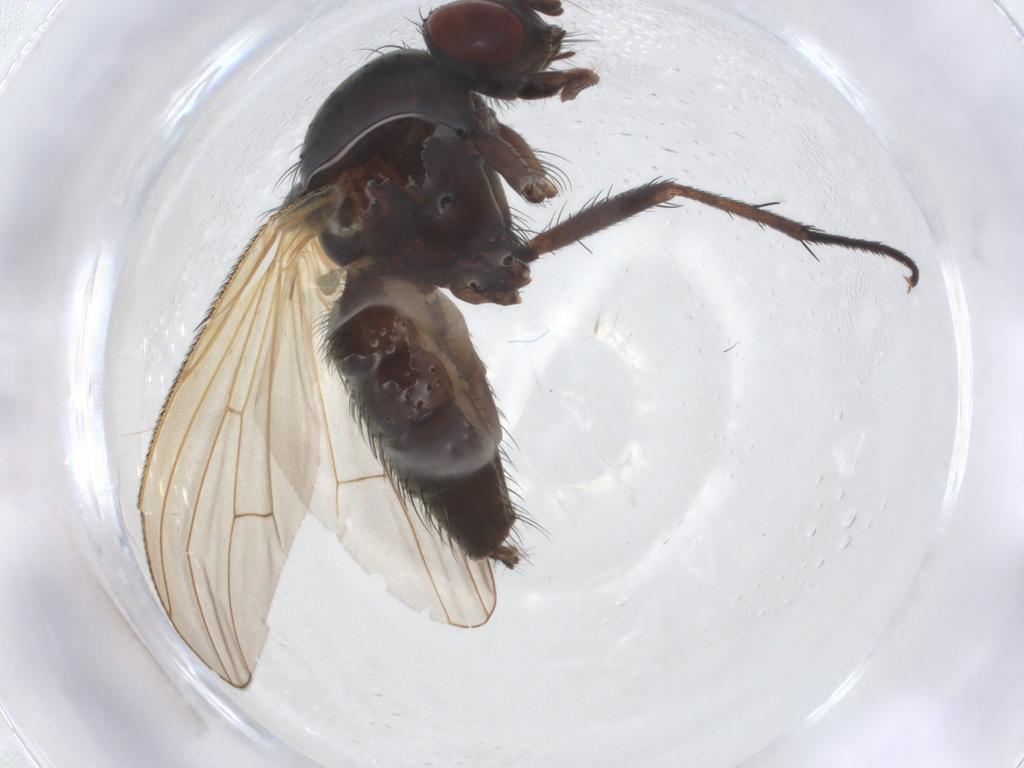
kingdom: Animalia
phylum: Arthropoda
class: Insecta
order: Diptera
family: Anthomyiidae
